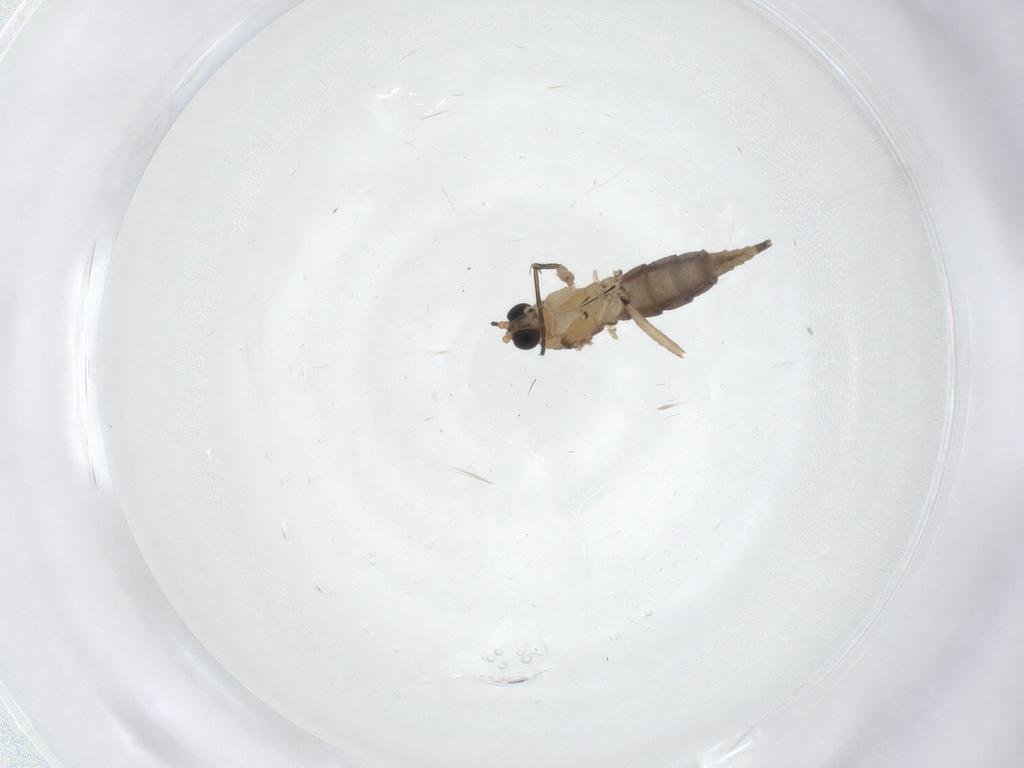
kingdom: Animalia
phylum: Arthropoda
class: Insecta
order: Diptera
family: Sciaridae
